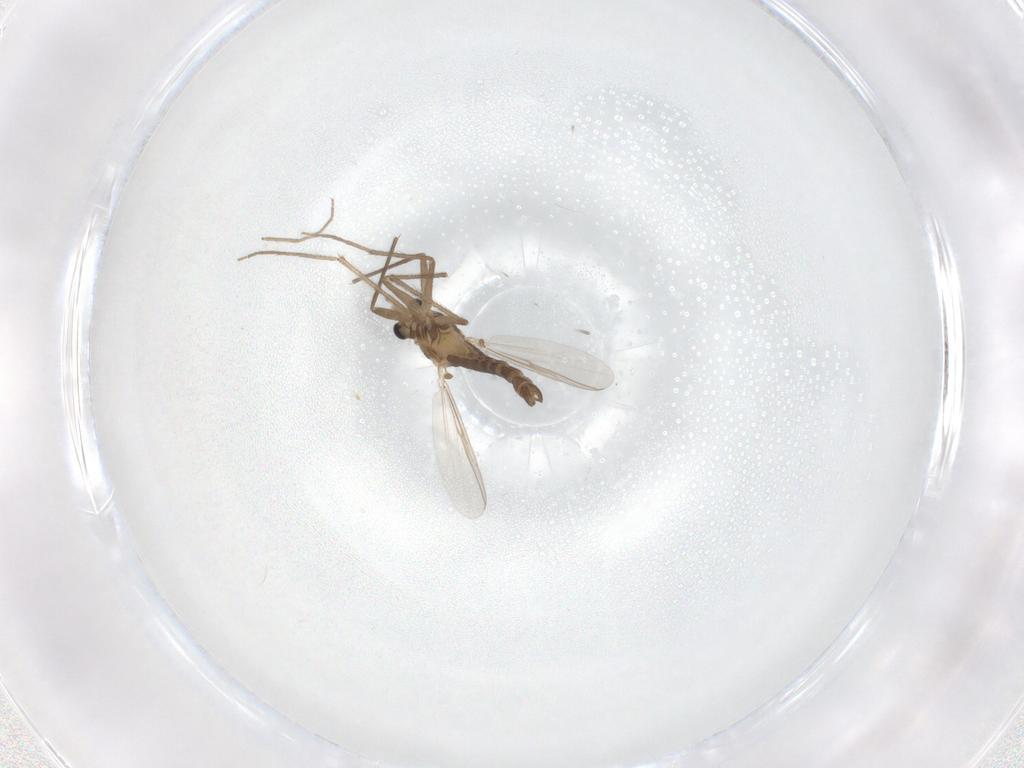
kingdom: Animalia
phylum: Arthropoda
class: Insecta
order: Diptera
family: Chironomidae
